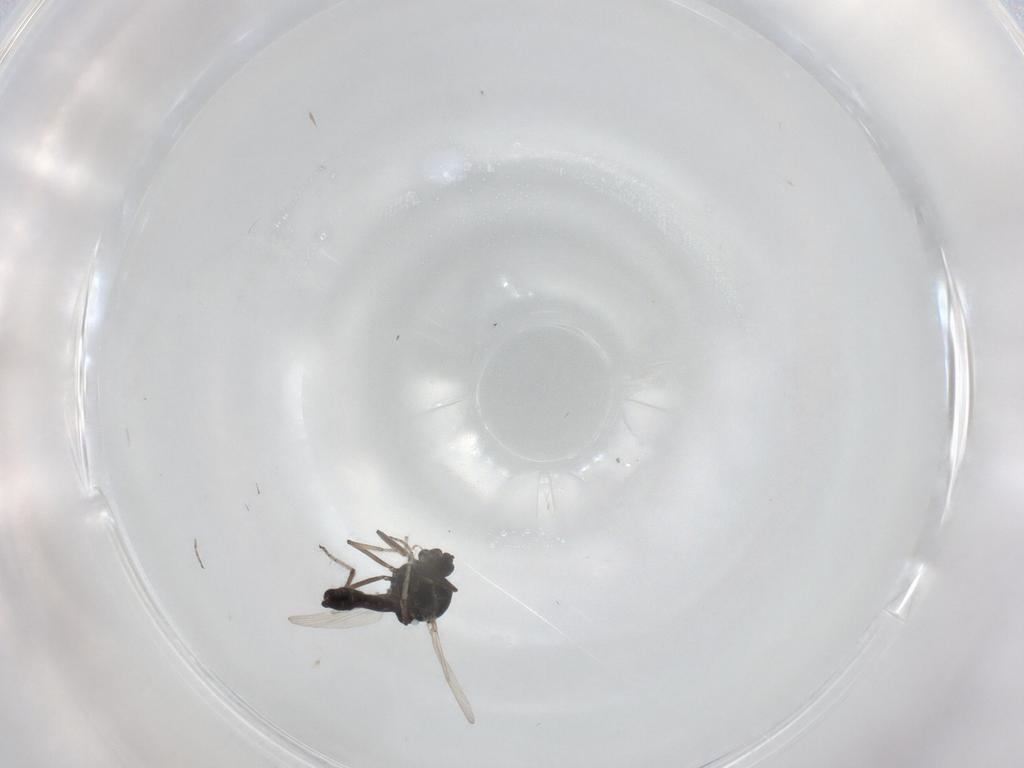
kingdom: Animalia
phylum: Arthropoda
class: Insecta
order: Diptera
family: Ceratopogonidae
